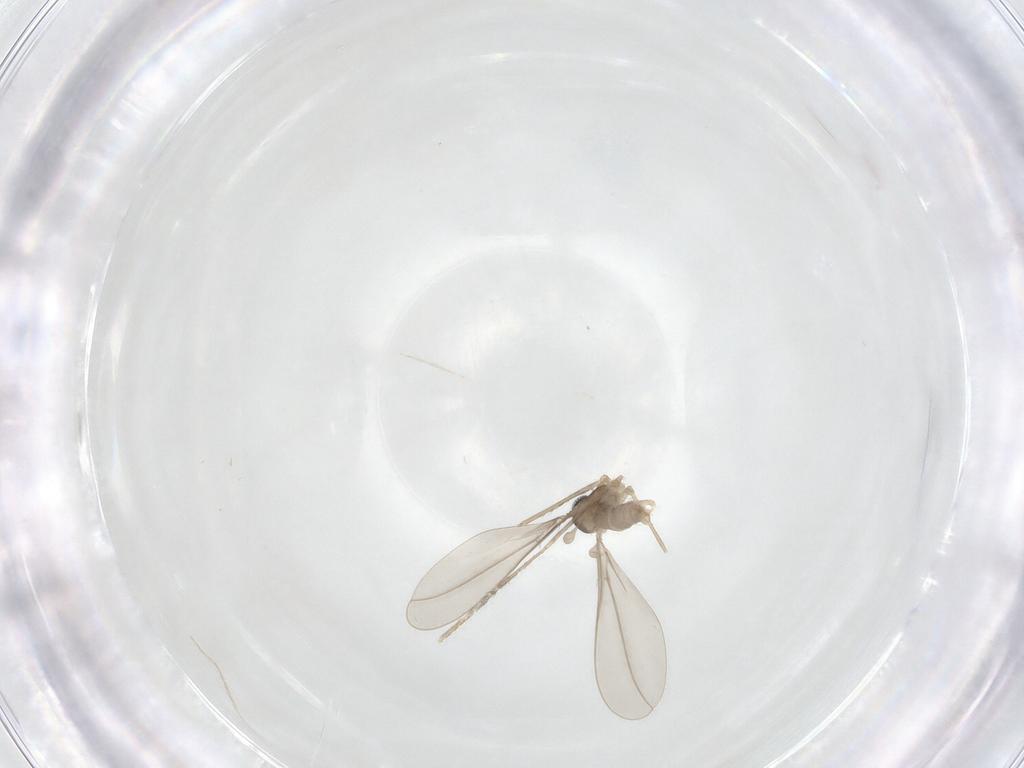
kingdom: Animalia
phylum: Arthropoda
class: Insecta
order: Diptera
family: Cecidomyiidae
